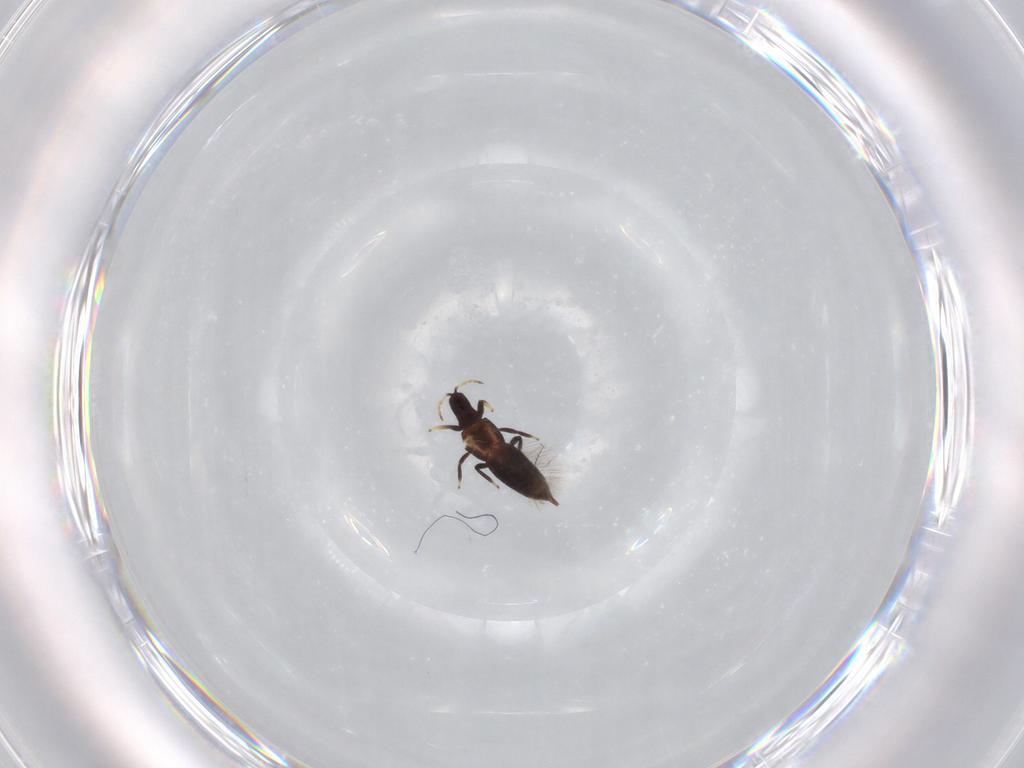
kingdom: Animalia
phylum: Arthropoda
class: Insecta
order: Thysanoptera
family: Phlaeothripidae
